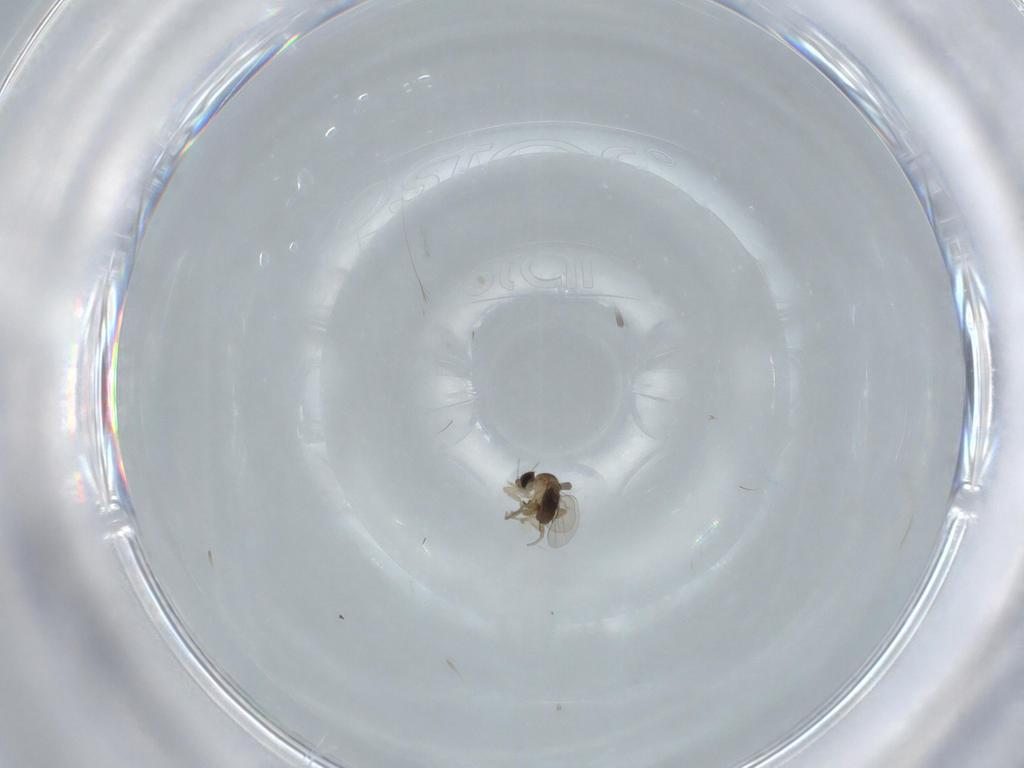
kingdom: Animalia
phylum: Arthropoda
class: Insecta
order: Diptera
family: Phoridae
